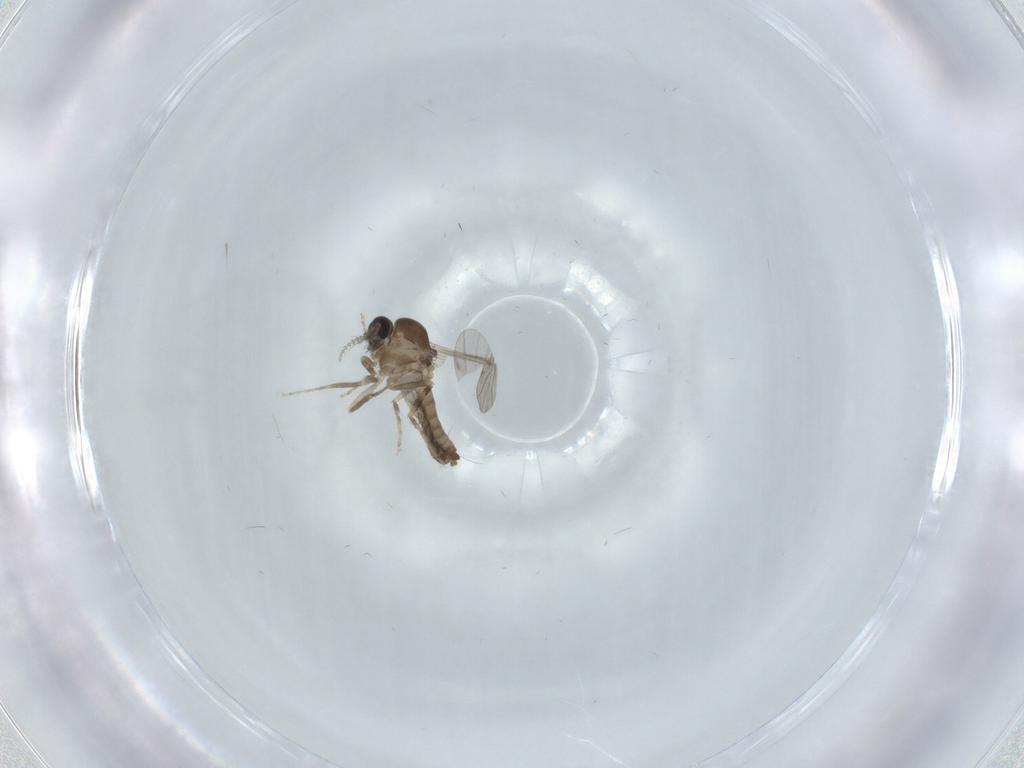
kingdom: Animalia
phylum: Arthropoda
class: Insecta
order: Diptera
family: Ceratopogonidae
